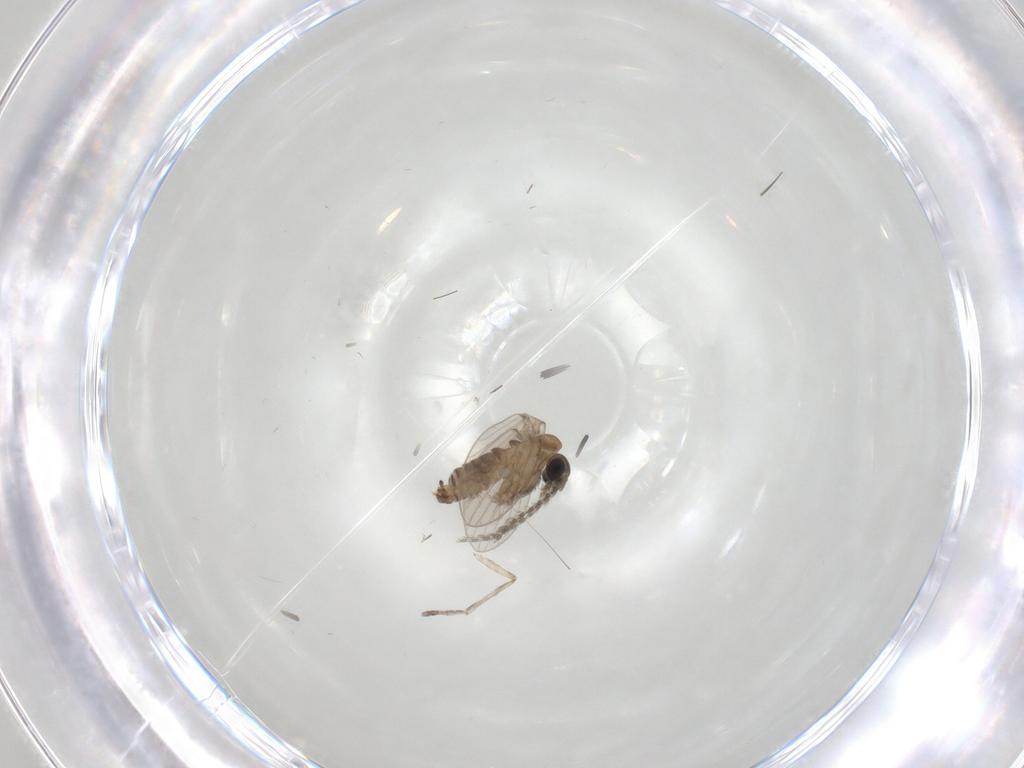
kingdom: Animalia
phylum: Arthropoda
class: Insecta
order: Diptera
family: Psychodidae
